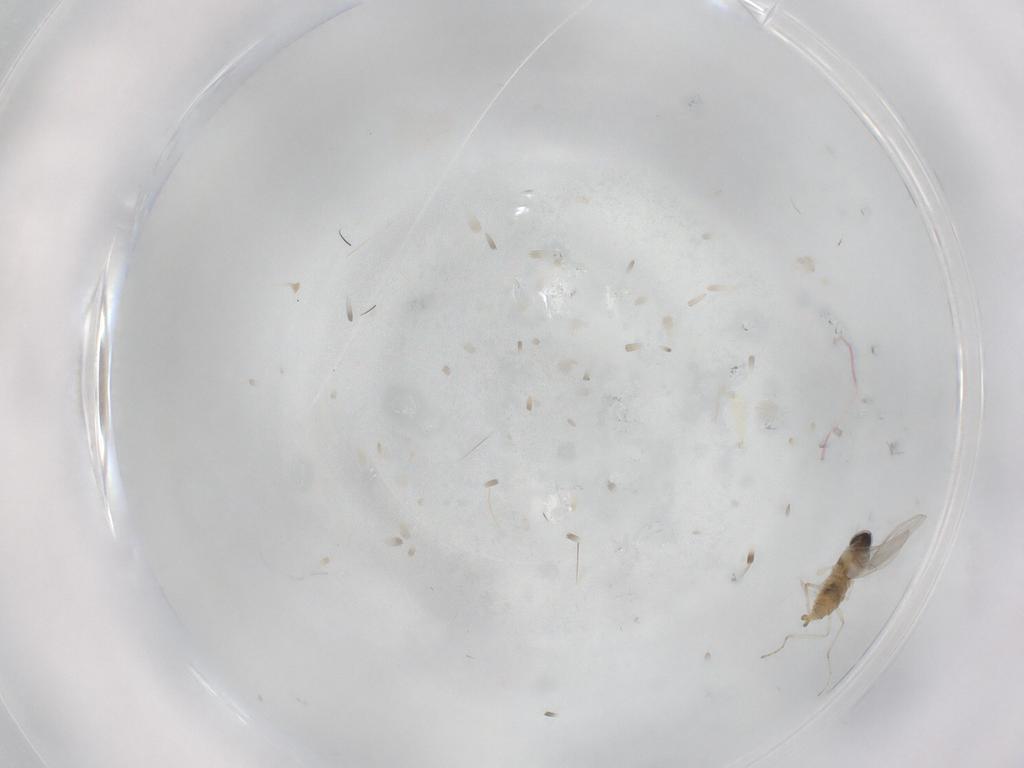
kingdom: Animalia
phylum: Arthropoda
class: Insecta
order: Diptera
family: Cecidomyiidae
